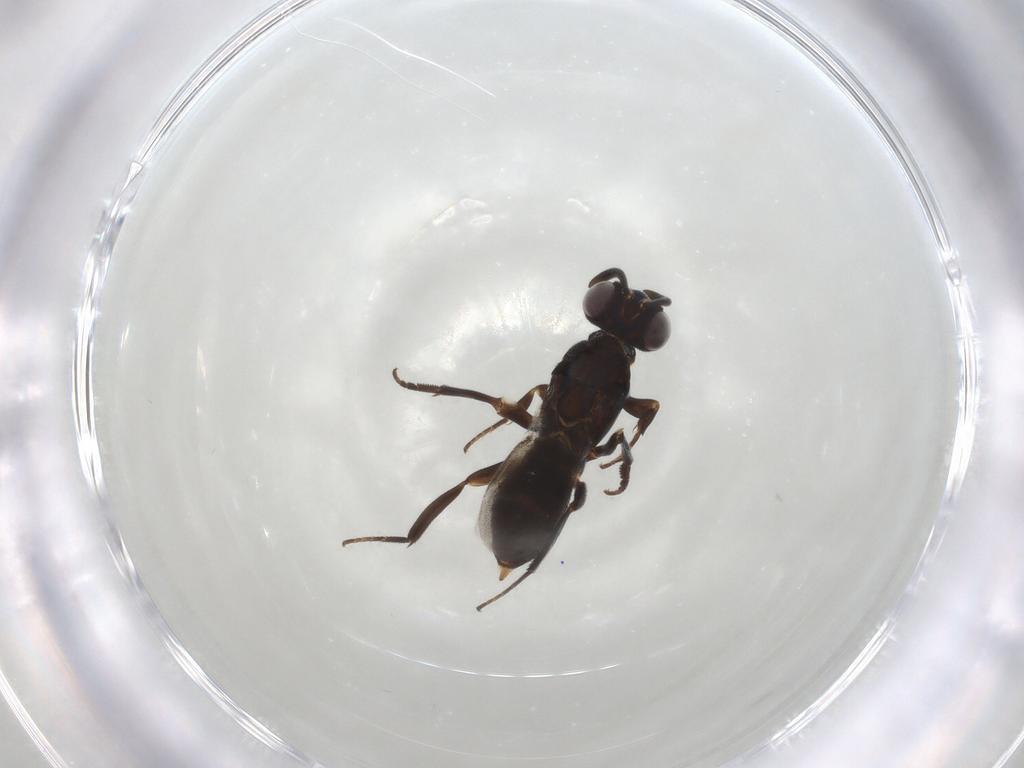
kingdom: Animalia
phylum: Arthropoda
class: Insecta
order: Hymenoptera
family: Eupelmidae
